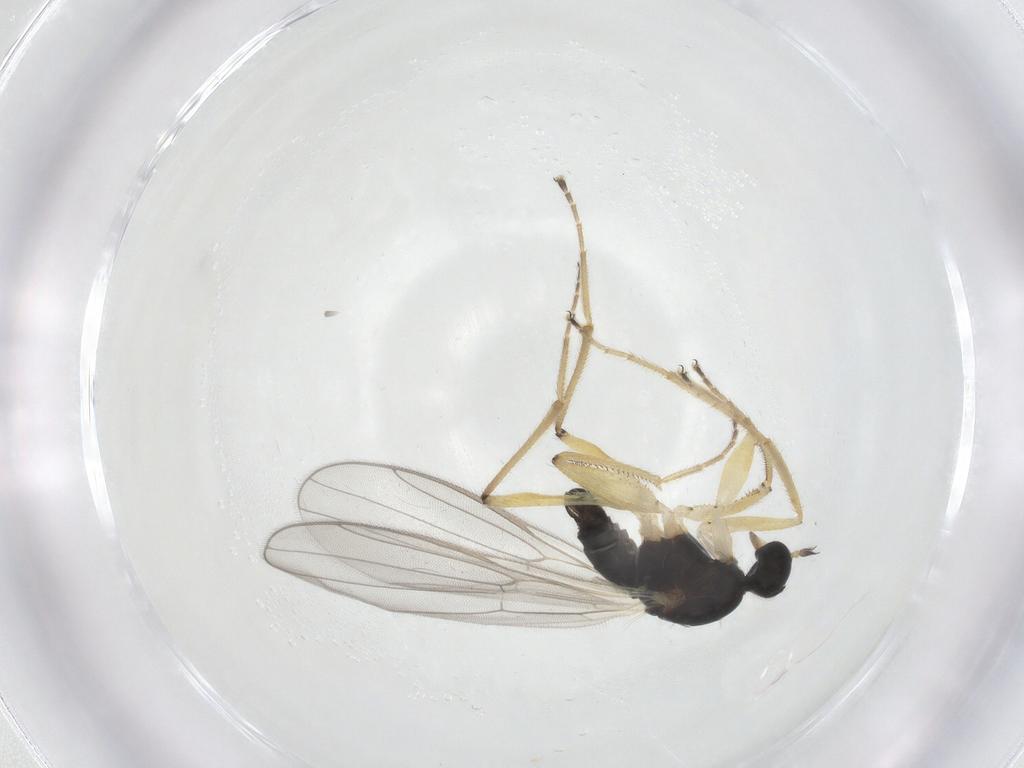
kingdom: Animalia
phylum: Arthropoda
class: Insecta
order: Diptera
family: Hybotidae
